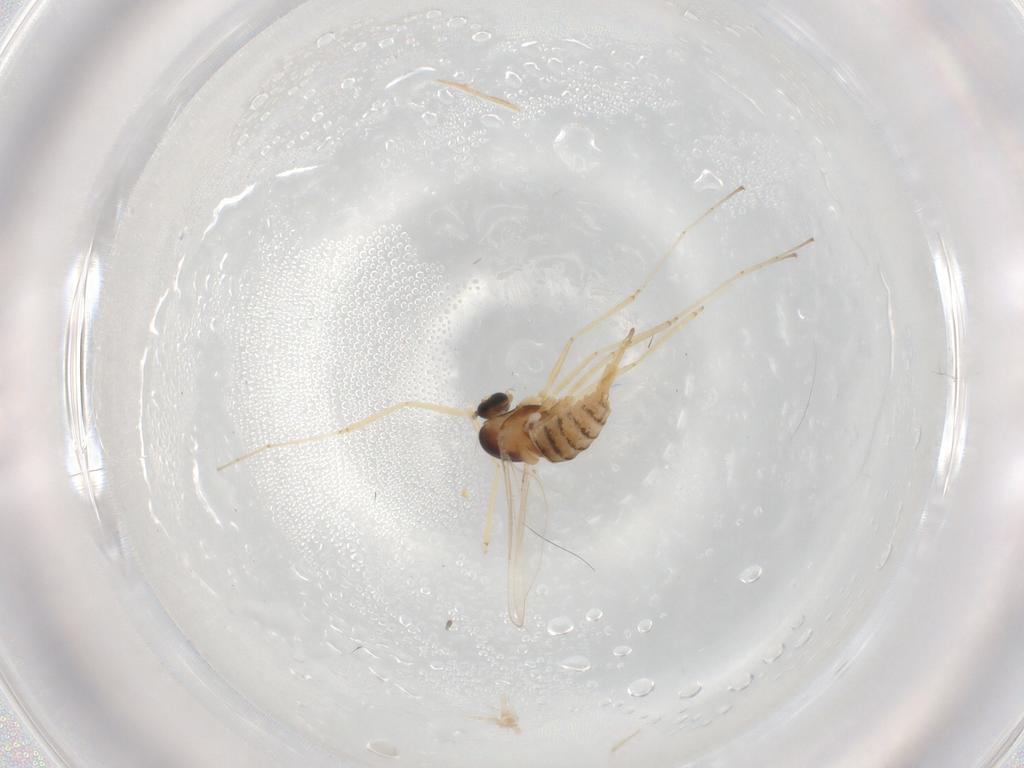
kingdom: Animalia
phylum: Arthropoda
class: Insecta
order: Diptera
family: Cecidomyiidae
